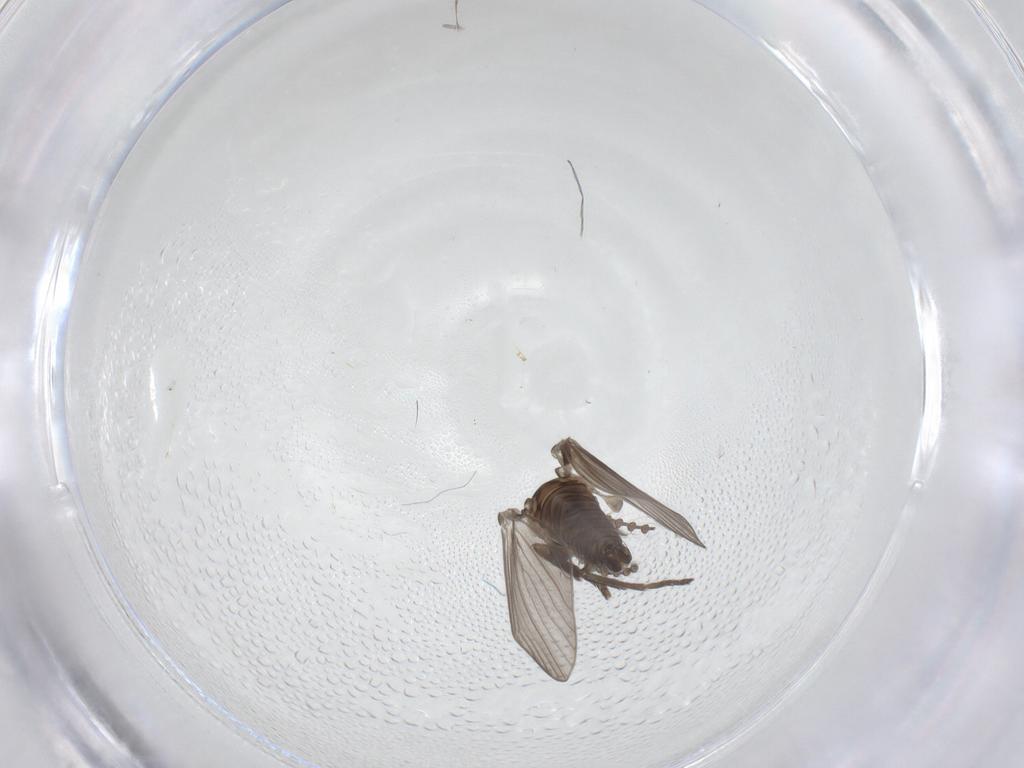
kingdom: Animalia
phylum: Arthropoda
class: Insecta
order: Diptera
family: Psychodidae
